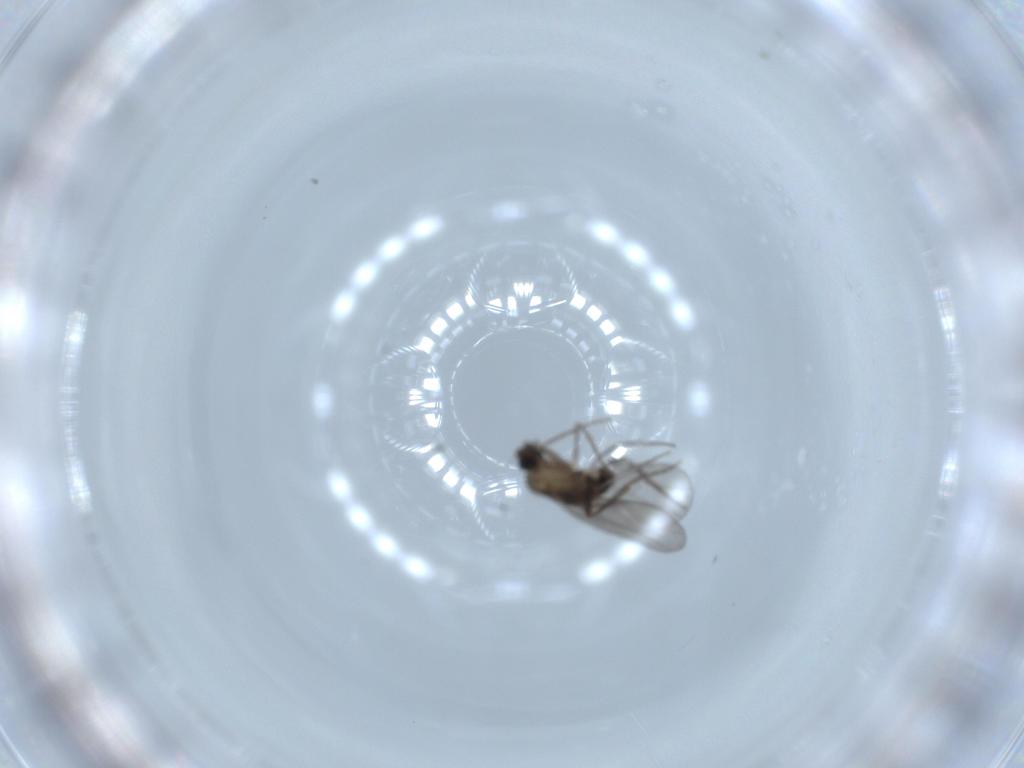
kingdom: Animalia
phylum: Arthropoda
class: Insecta
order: Diptera
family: Phoridae
